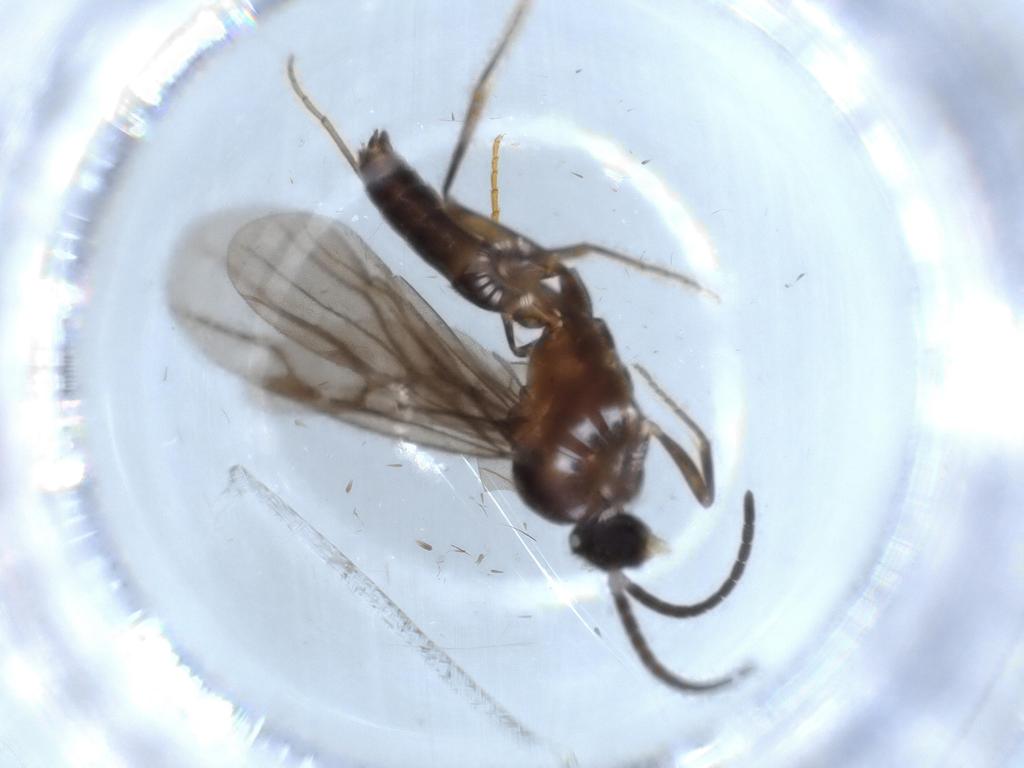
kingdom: Animalia
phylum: Arthropoda
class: Insecta
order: Hymenoptera
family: Formicidae
